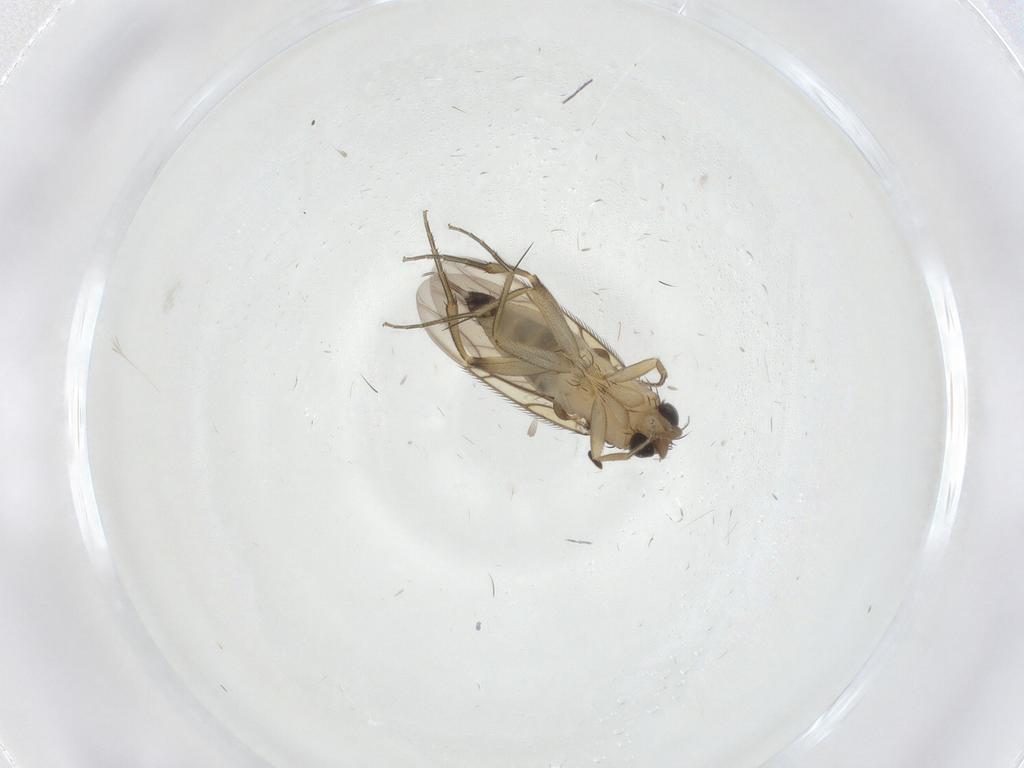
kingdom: Animalia
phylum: Arthropoda
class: Insecta
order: Diptera
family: Phoridae
